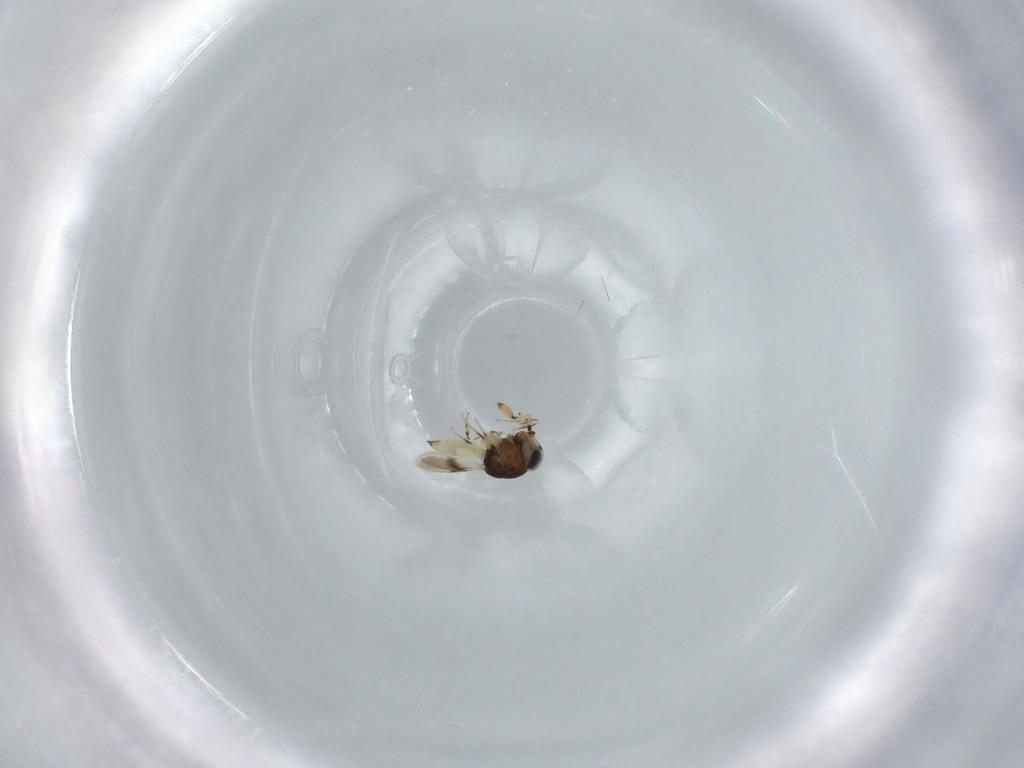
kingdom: Animalia
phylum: Arthropoda
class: Insecta
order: Hymenoptera
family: Scelionidae
